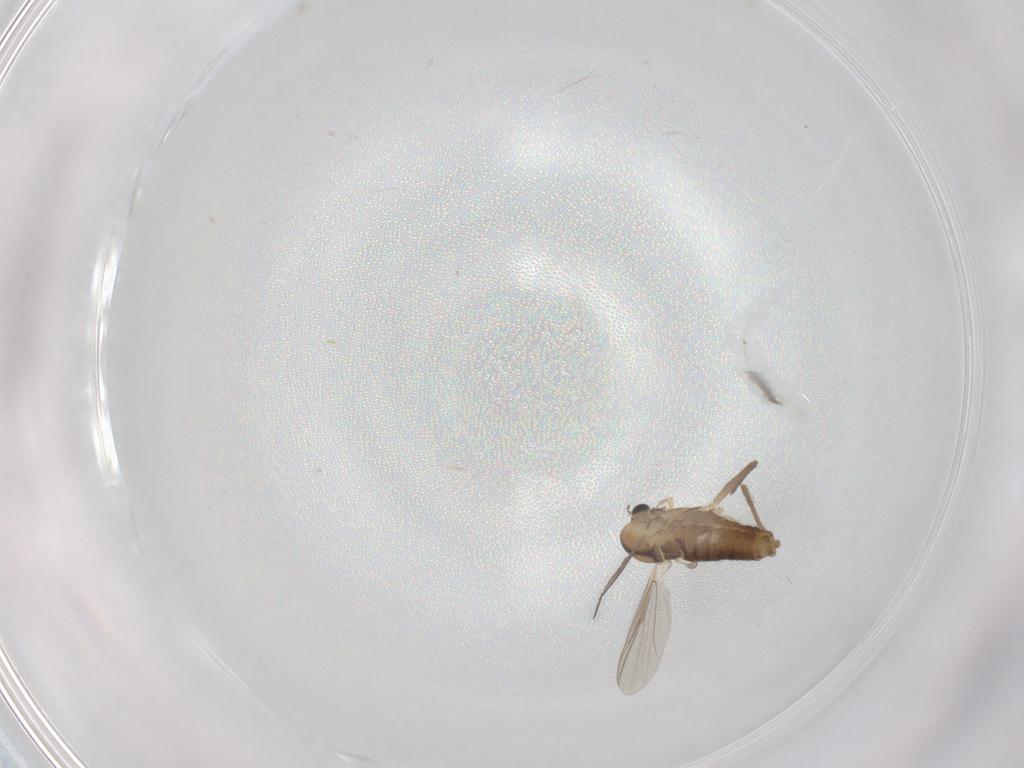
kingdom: Animalia
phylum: Arthropoda
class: Insecta
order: Diptera
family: Chironomidae
